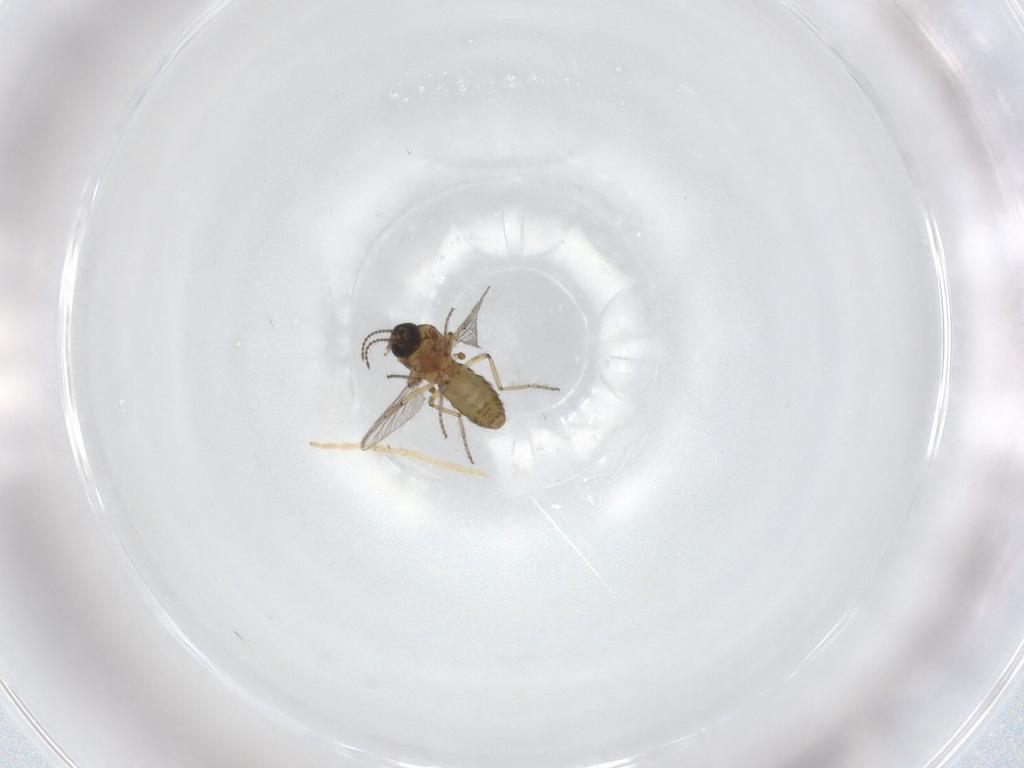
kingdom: Animalia
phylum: Arthropoda
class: Insecta
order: Diptera
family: Ceratopogonidae
